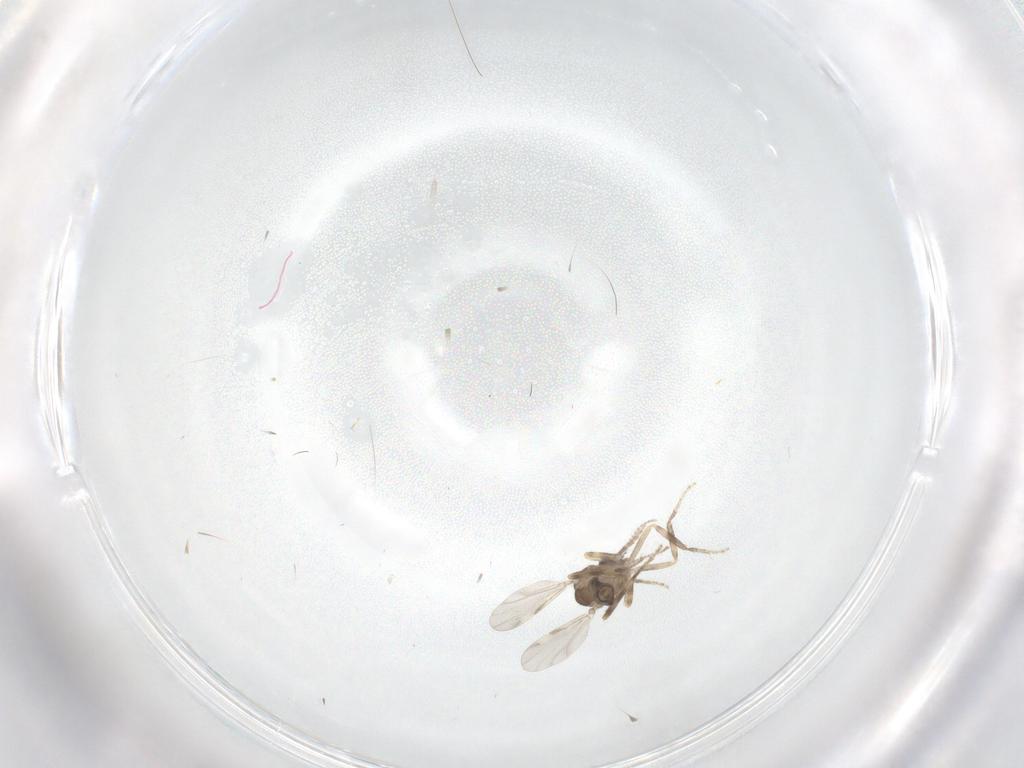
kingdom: Animalia
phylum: Arthropoda
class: Insecta
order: Diptera
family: Ceratopogonidae
